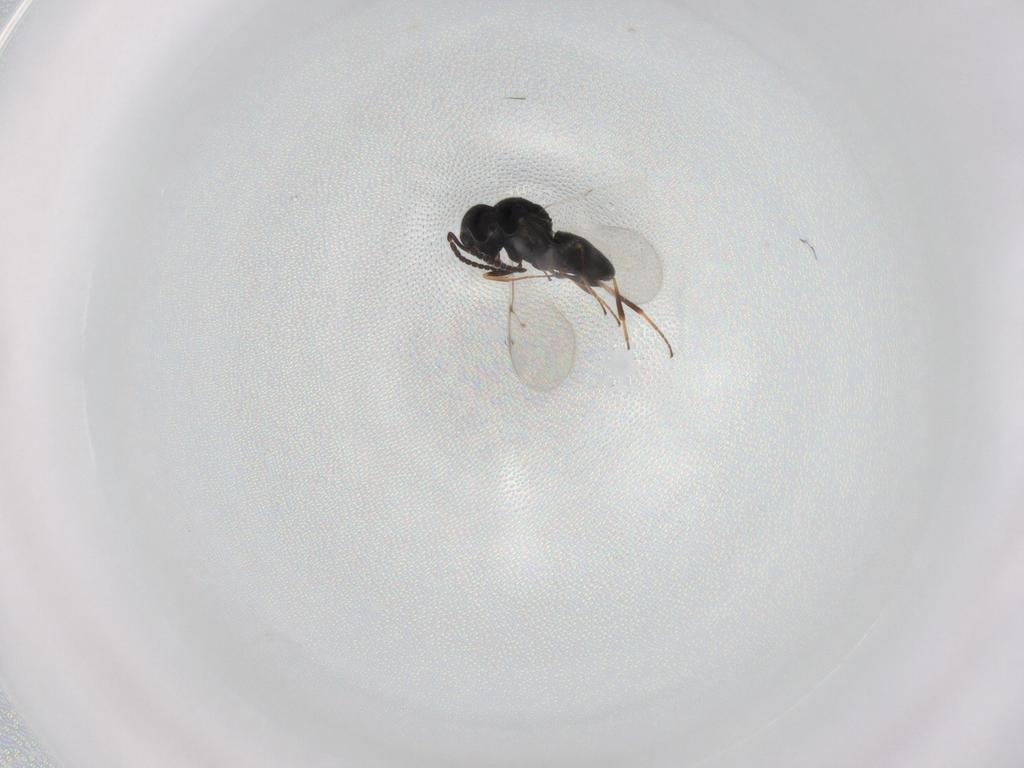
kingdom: Animalia
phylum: Arthropoda
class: Insecta
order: Hymenoptera
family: Scelionidae
